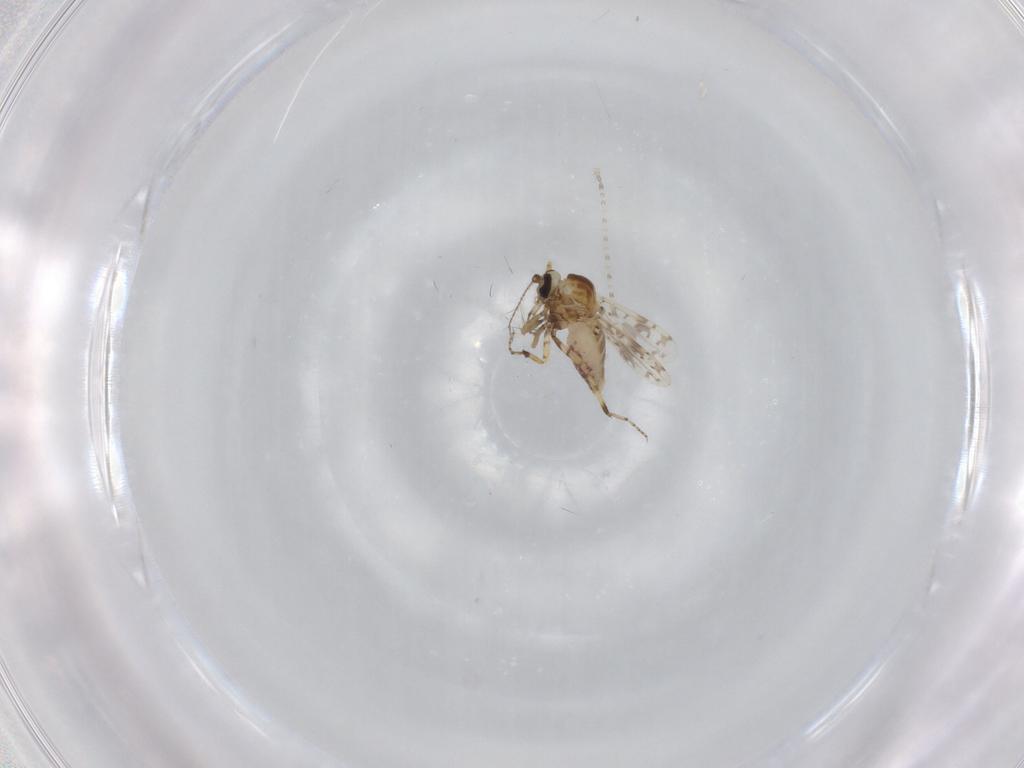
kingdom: Animalia
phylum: Arthropoda
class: Insecta
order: Diptera
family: Ceratopogonidae
